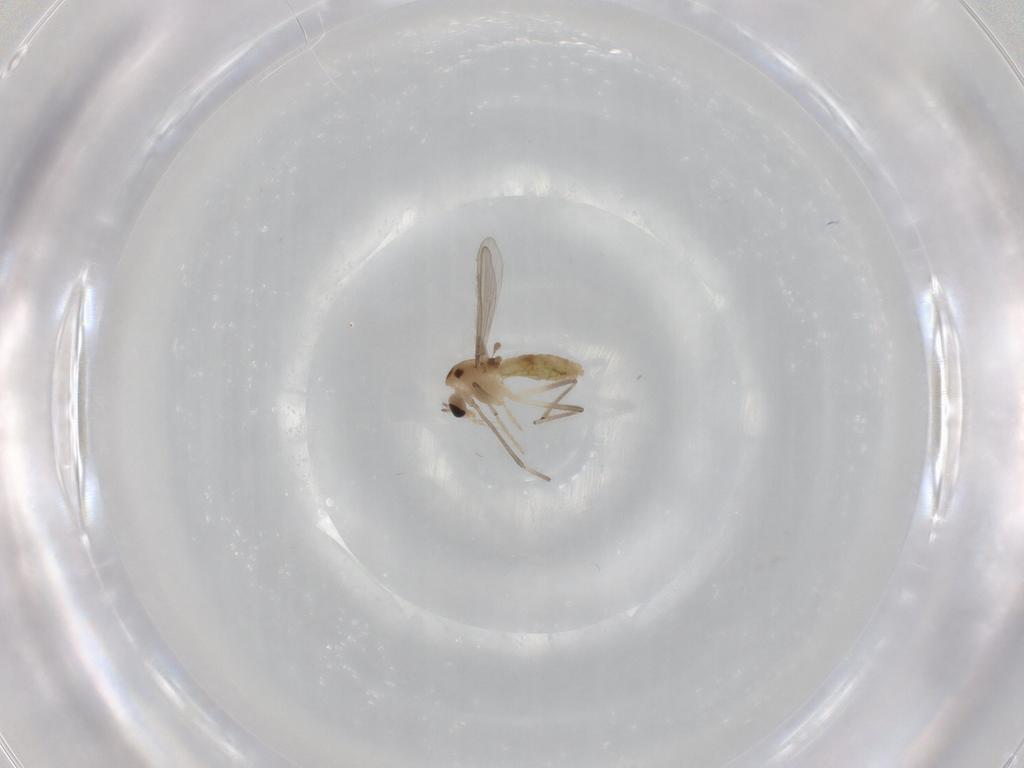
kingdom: Animalia
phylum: Arthropoda
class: Insecta
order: Diptera
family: Chironomidae
